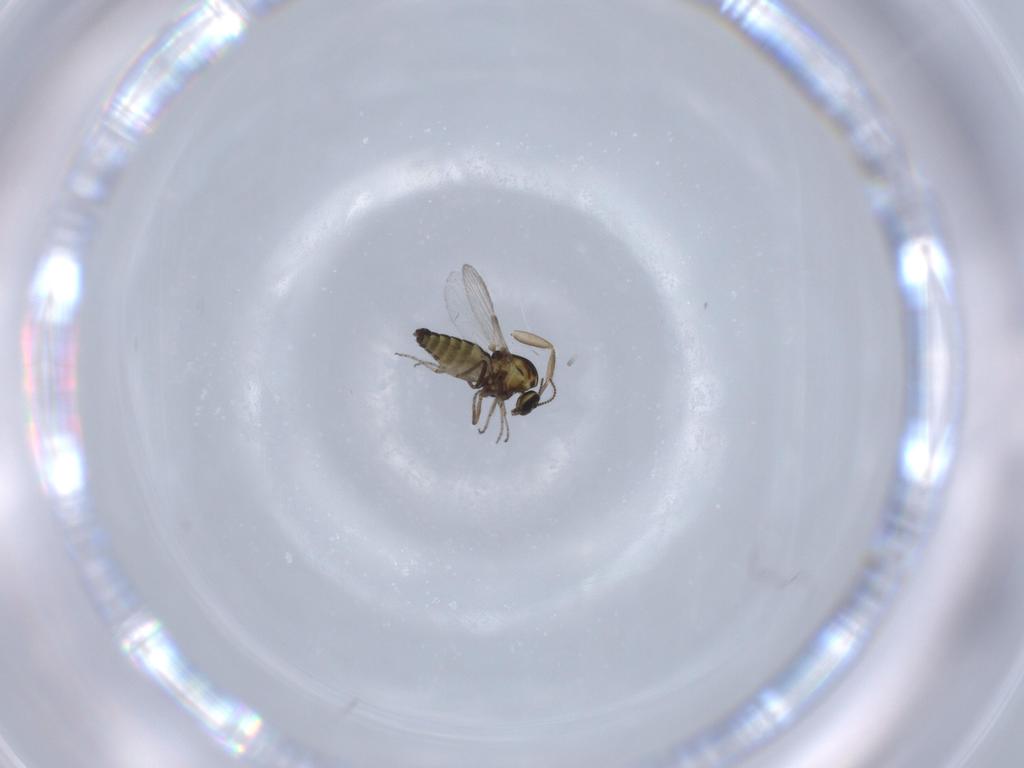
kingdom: Animalia
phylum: Arthropoda
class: Insecta
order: Diptera
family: Ceratopogonidae
